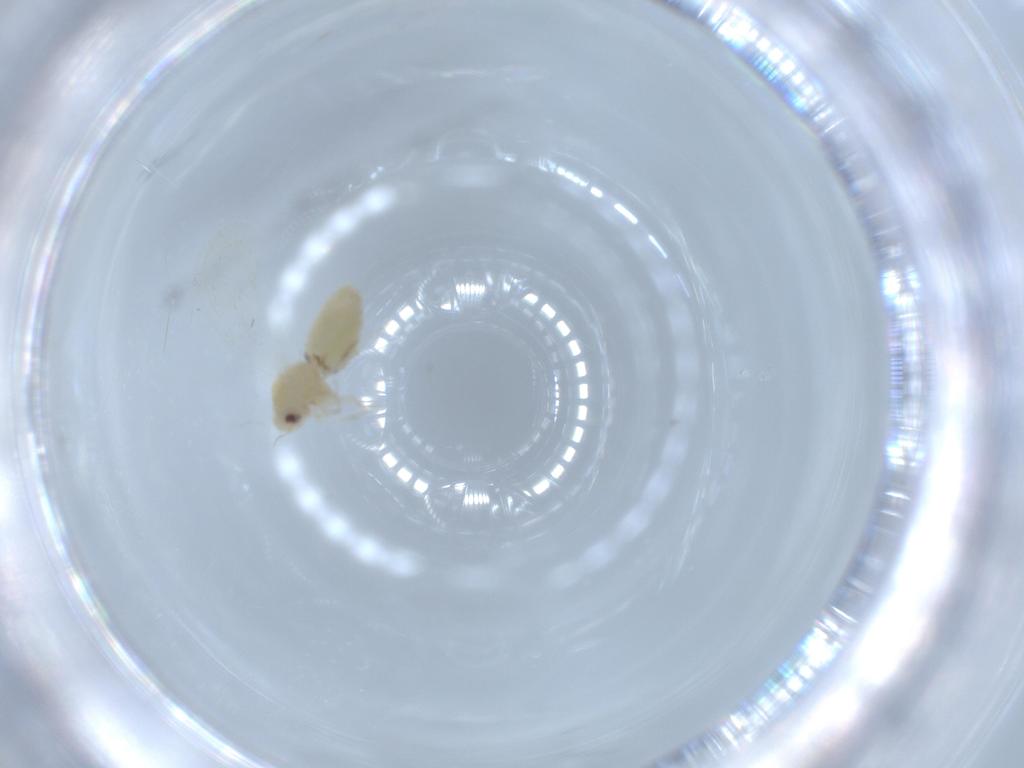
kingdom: Animalia
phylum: Arthropoda
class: Insecta
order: Hemiptera
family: Aleyrodidae
